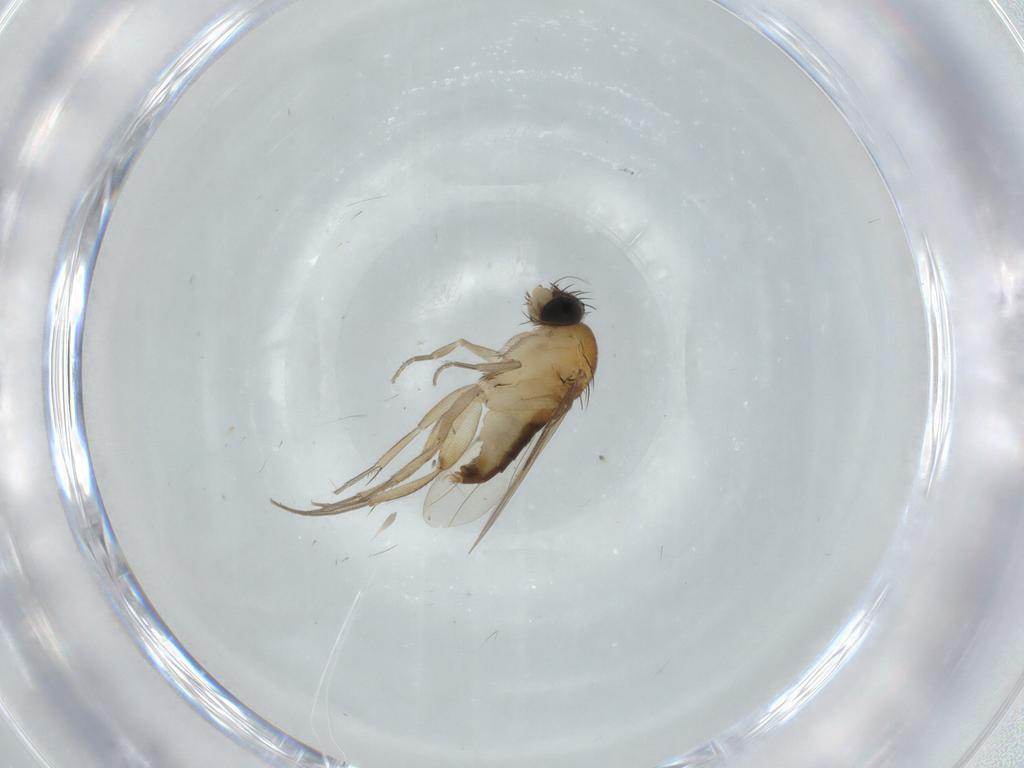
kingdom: Animalia
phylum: Arthropoda
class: Insecta
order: Diptera
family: Phoridae
